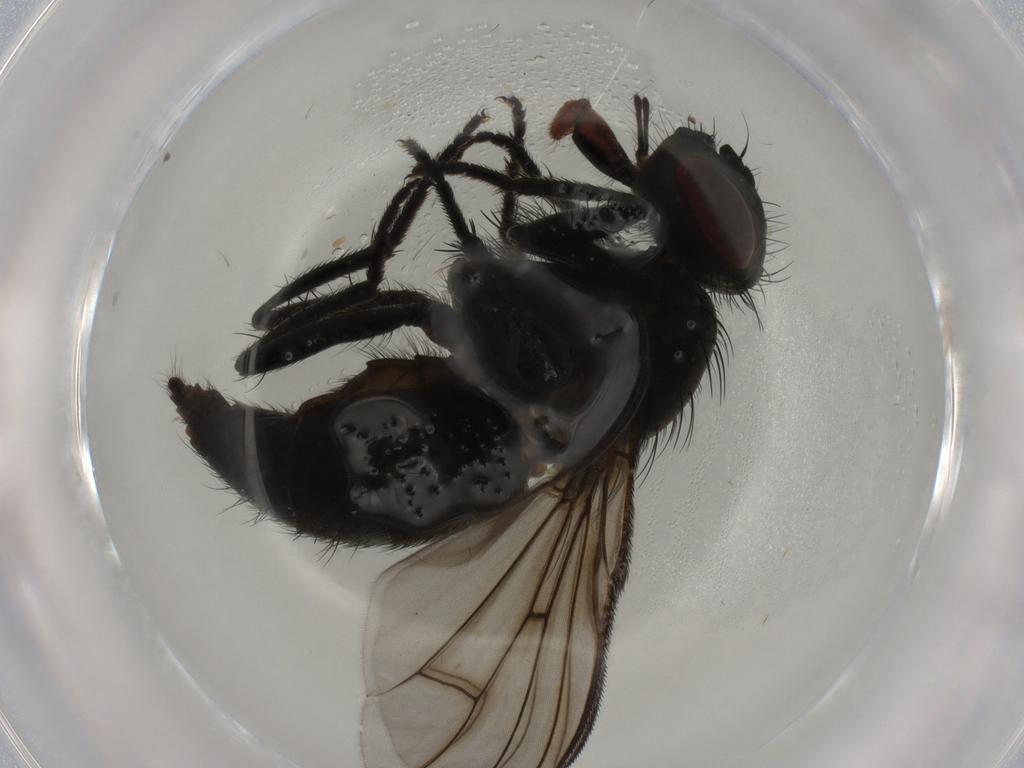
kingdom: Animalia
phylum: Arthropoda
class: Insecta
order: Diptera
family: Muscidae
